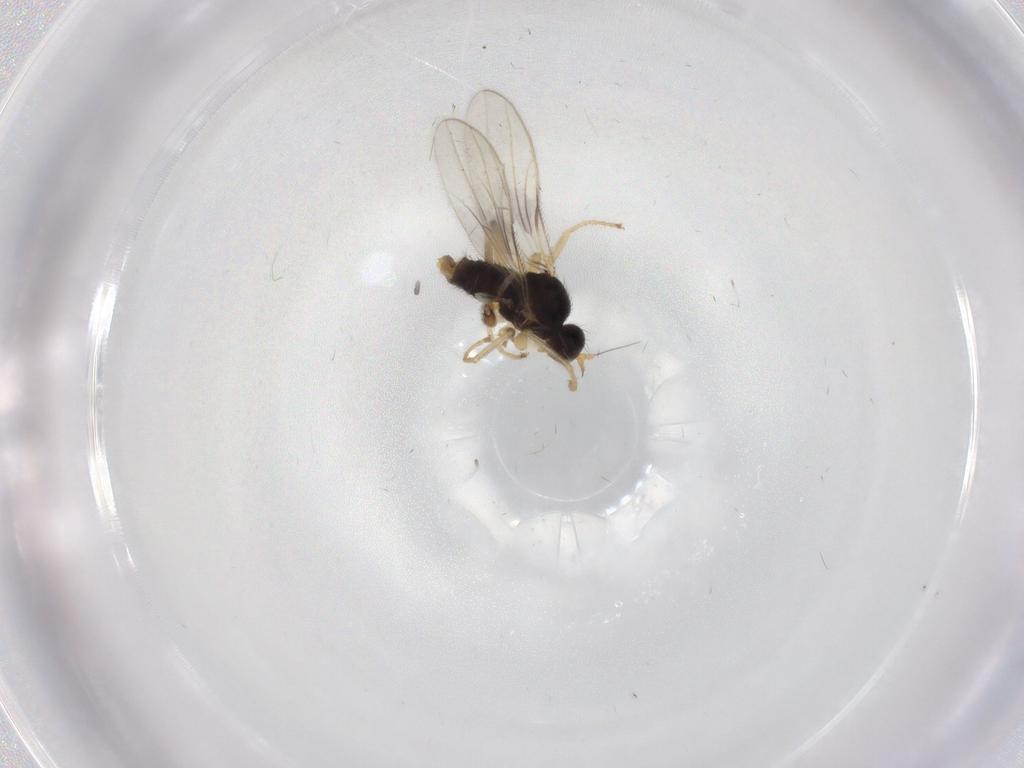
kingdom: Animalia
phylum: Arthropoda
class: Insecta
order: Diptera
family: Hybotidae
